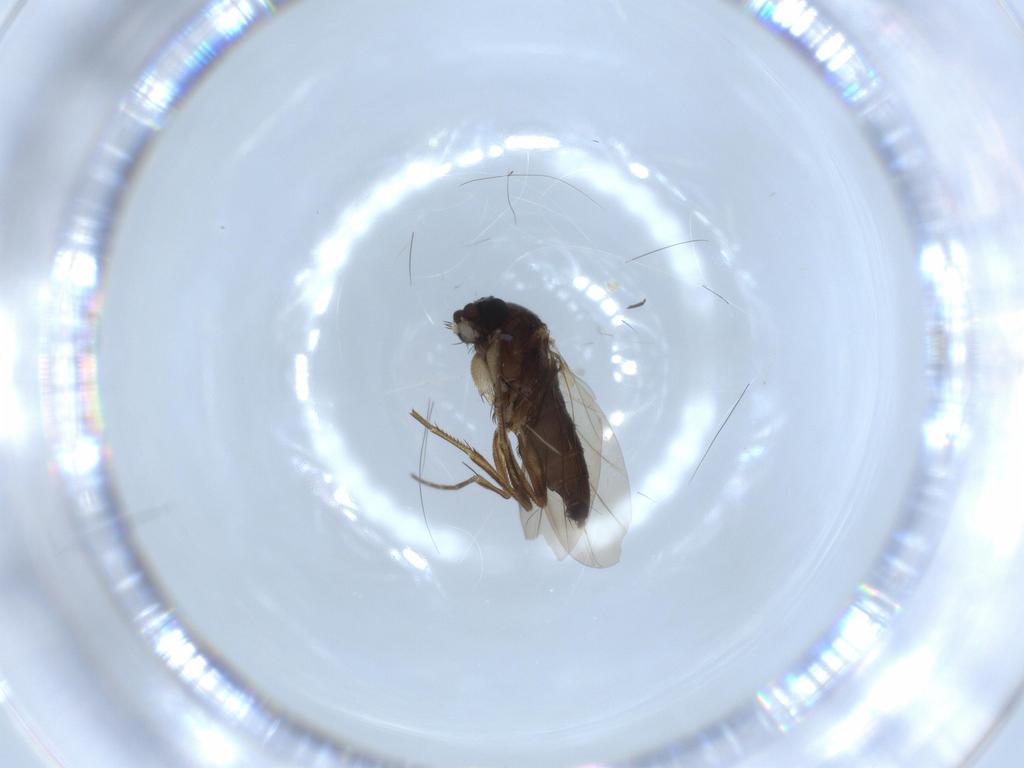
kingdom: Animalia
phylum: Arthropoda
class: Insecta
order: Diptera
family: Phoridae
